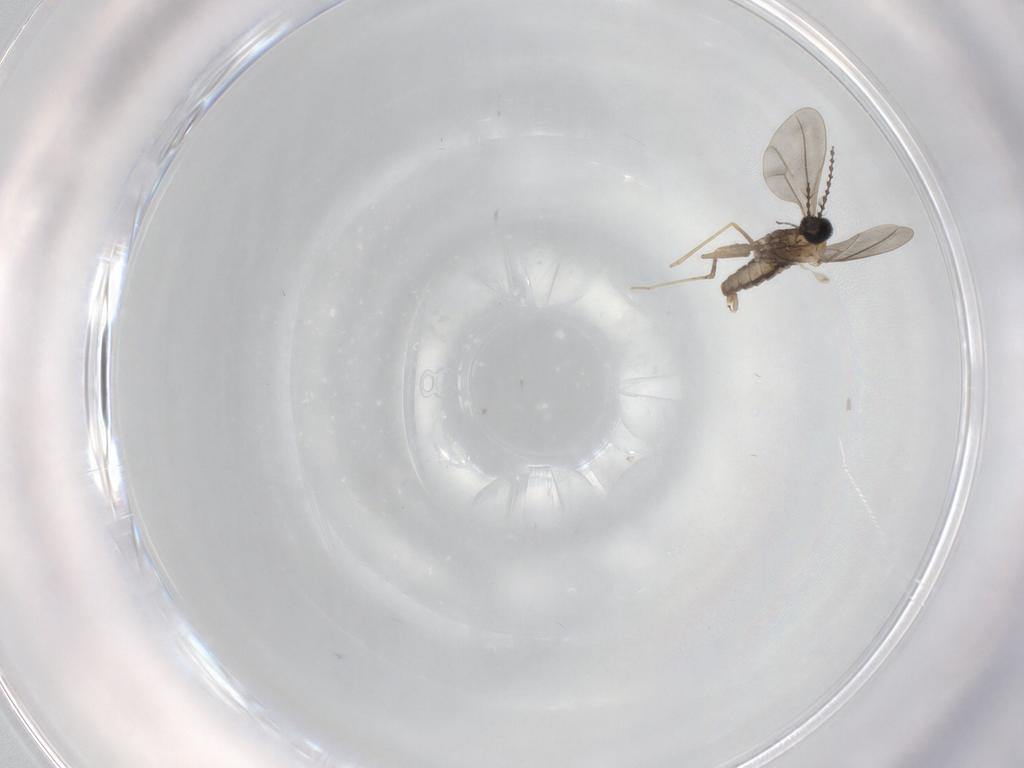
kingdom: Animalia
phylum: Arthropoda
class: Insecta
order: Diptera
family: Cecidomyiidae
